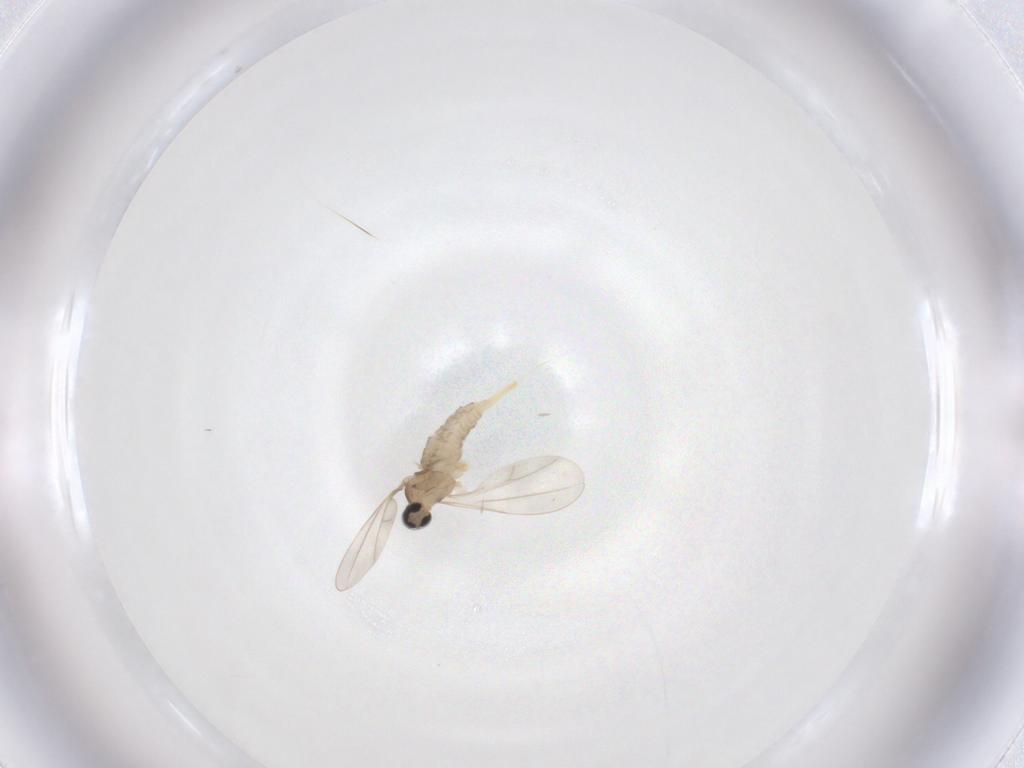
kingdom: Animalia
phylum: Arthropoda
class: Insecta
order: Diptera
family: Cecidomyiidae
